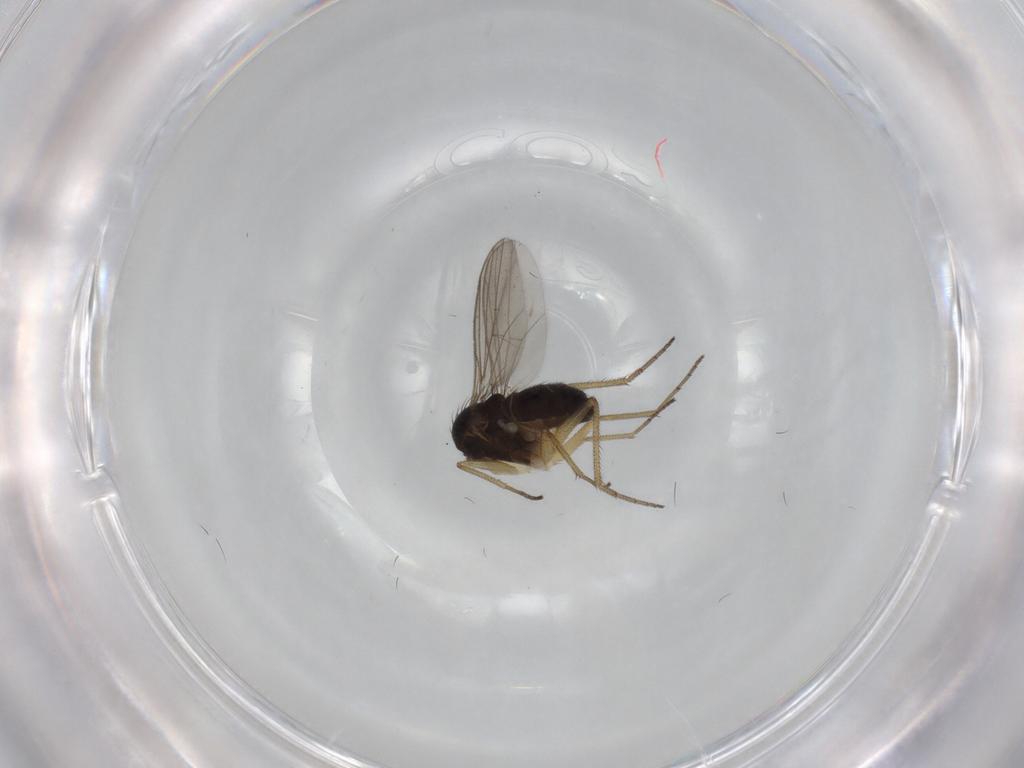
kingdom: Animalia
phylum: Arthropoda
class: Insecta
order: Diptera
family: Dolichopodidae
